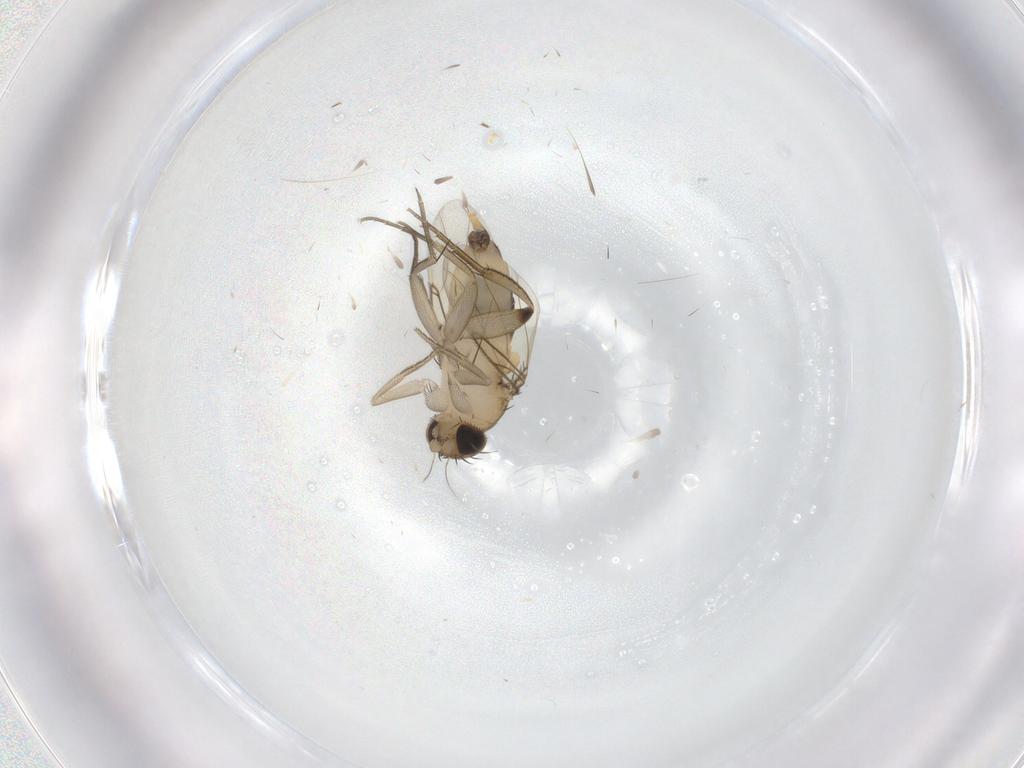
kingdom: Animalia
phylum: Arthropoda
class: Insecta
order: Diptera
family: Phoridae
